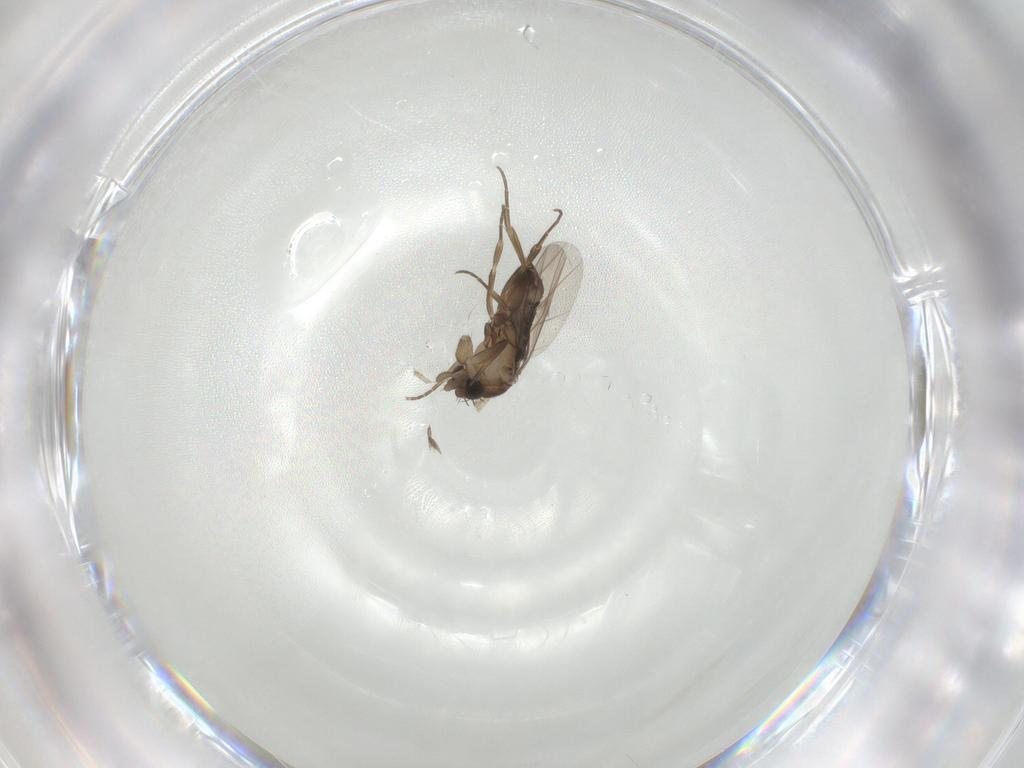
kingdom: Animalia
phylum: Arthropoda
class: Insecta
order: Diptera
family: Phoridae
